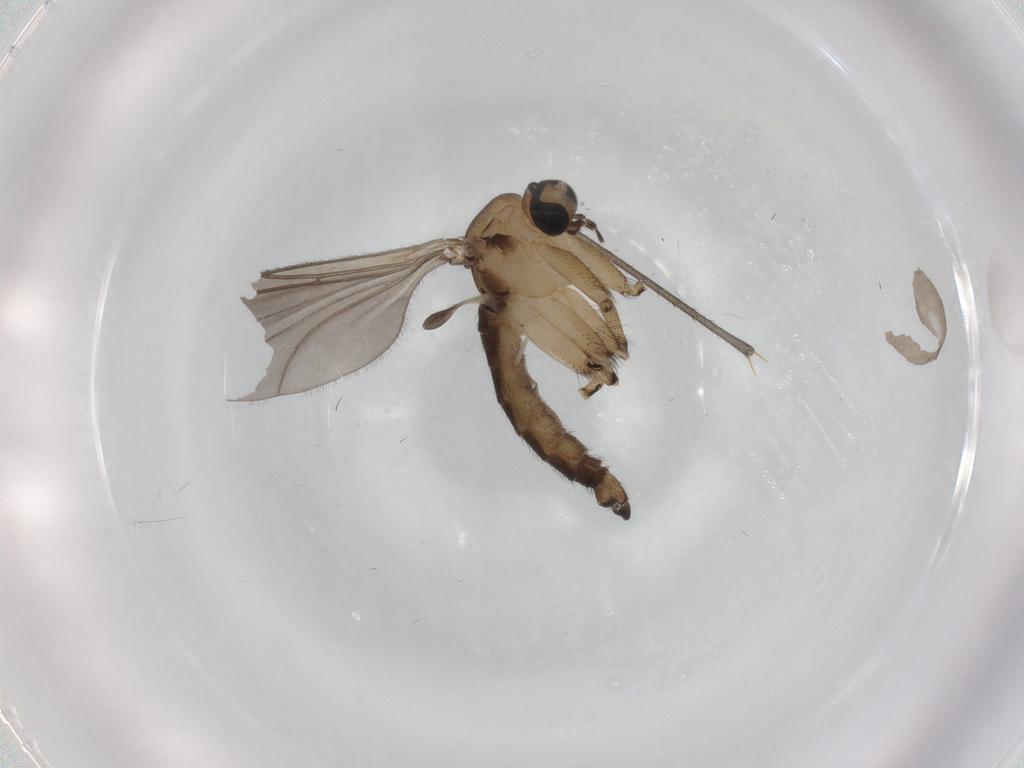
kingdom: Animalia
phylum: Arthropoda
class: Insecta
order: Diptera
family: Cecidomyiidae
